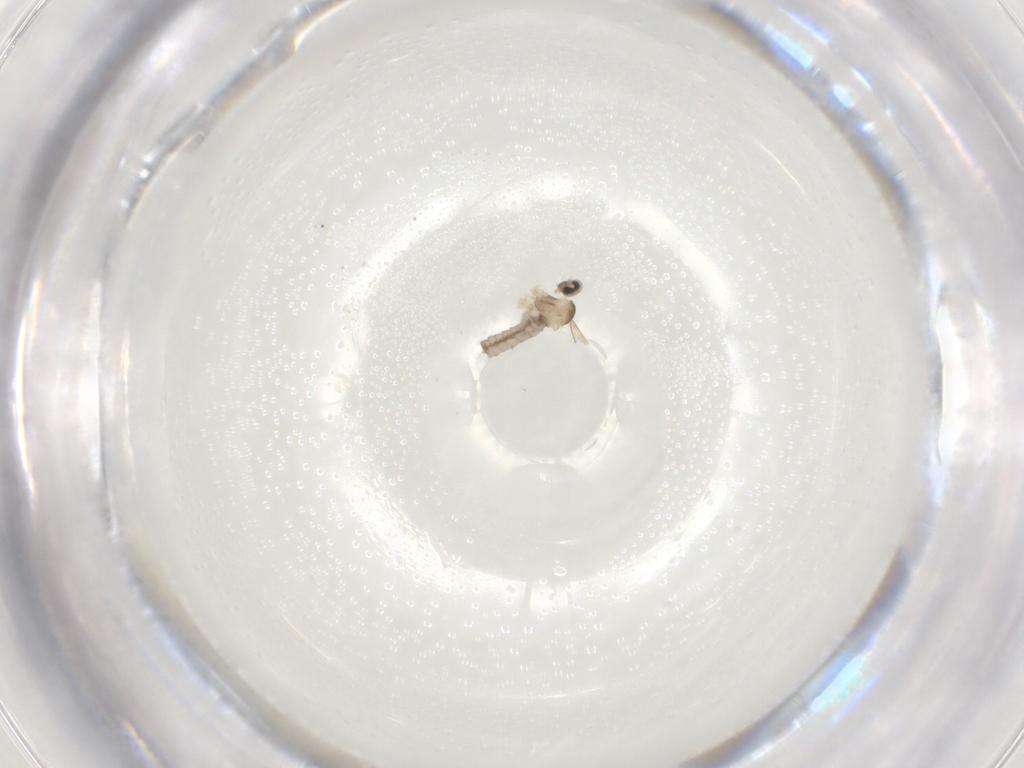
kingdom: Animalia
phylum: Arthropoda
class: Insecta
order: Diptera
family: Cecidomyiidae
